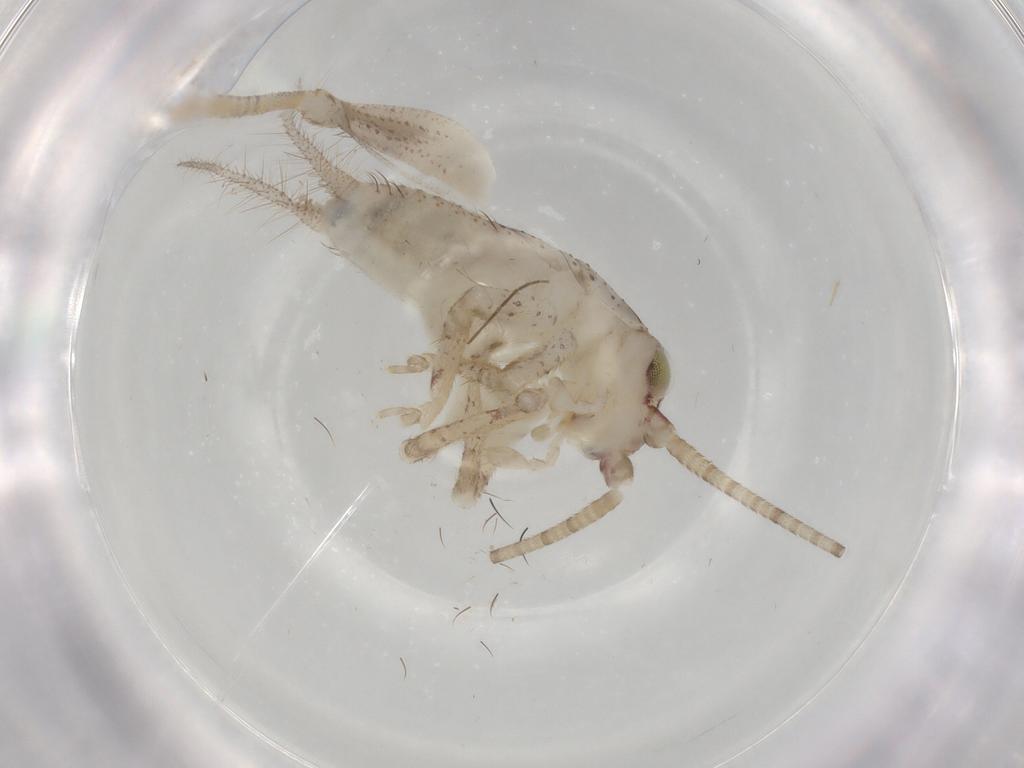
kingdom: Animalia
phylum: Arthropoda
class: Insecta
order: Orthoptera
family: Gryllidae
